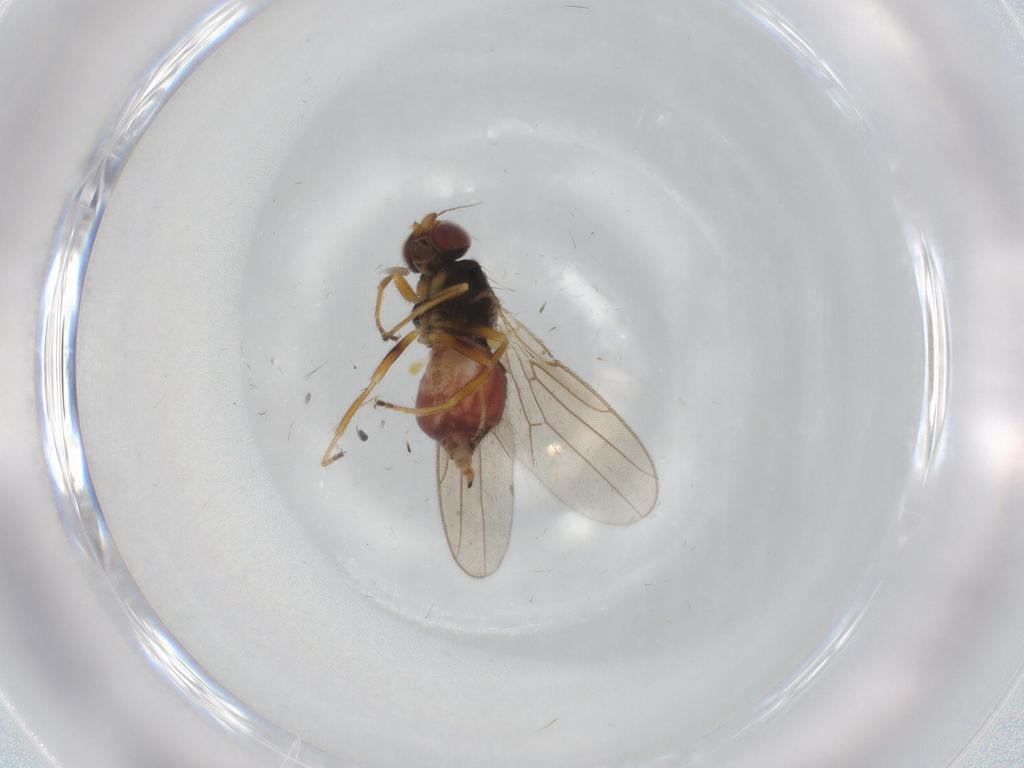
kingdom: Animalia
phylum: Arthropoda
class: Insecta
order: Diptera
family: Chloropidae
